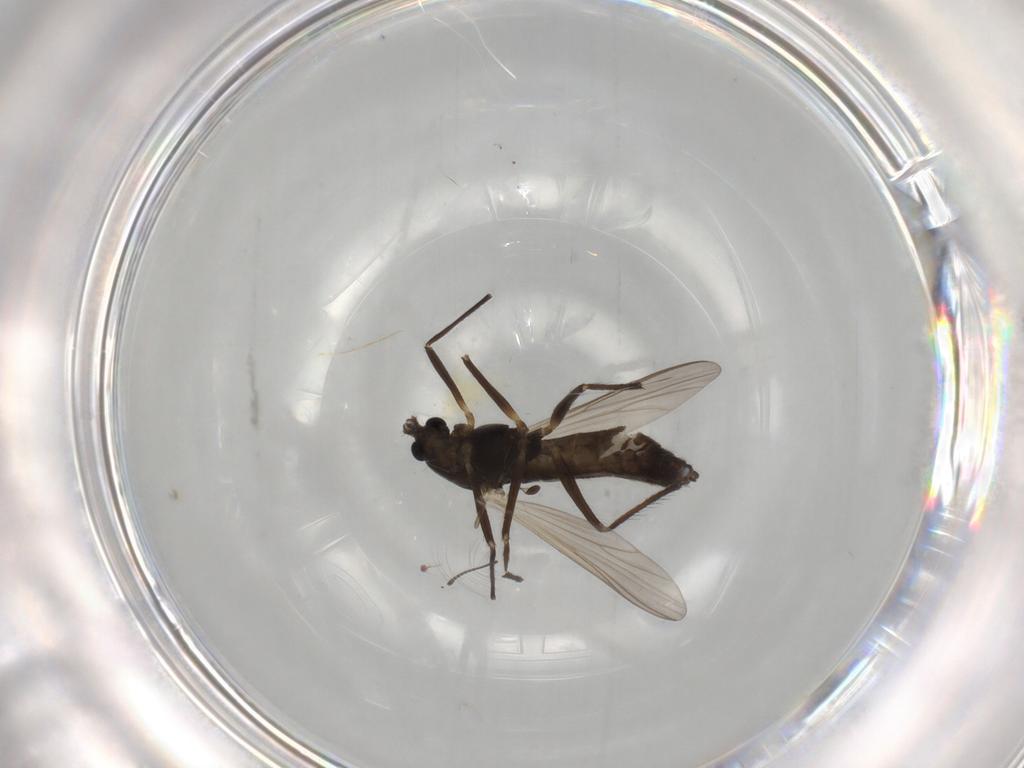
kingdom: Animalia
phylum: Arthropoda
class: Insecta
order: Diptera
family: Chironomidae
